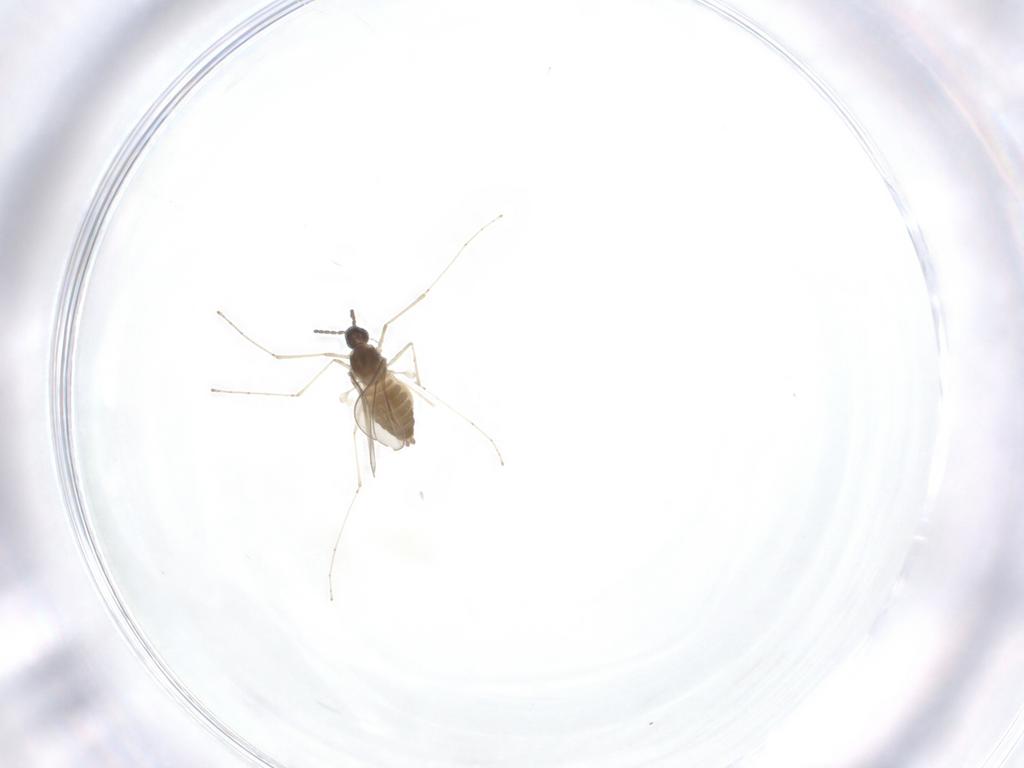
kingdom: Animalia
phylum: Arthropoda
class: Insecta
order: Diptera
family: Cecidomyiidae
